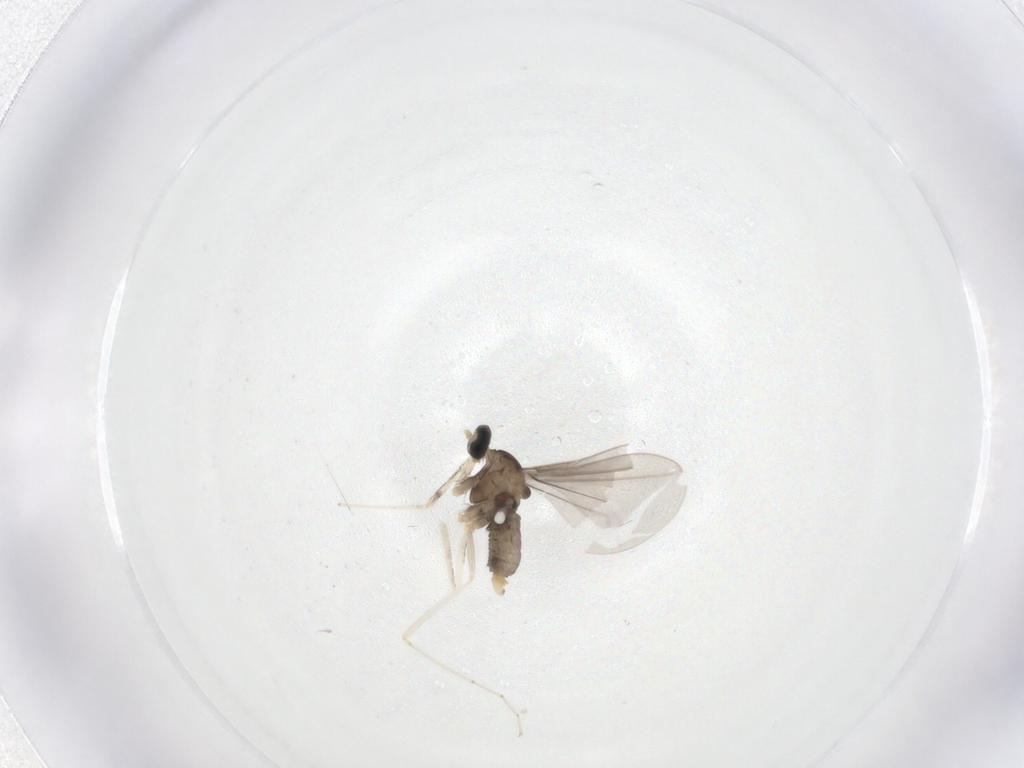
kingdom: Animalia
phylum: Arthropoda
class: Insecta
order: Diptera
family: Cecidomyiidae
